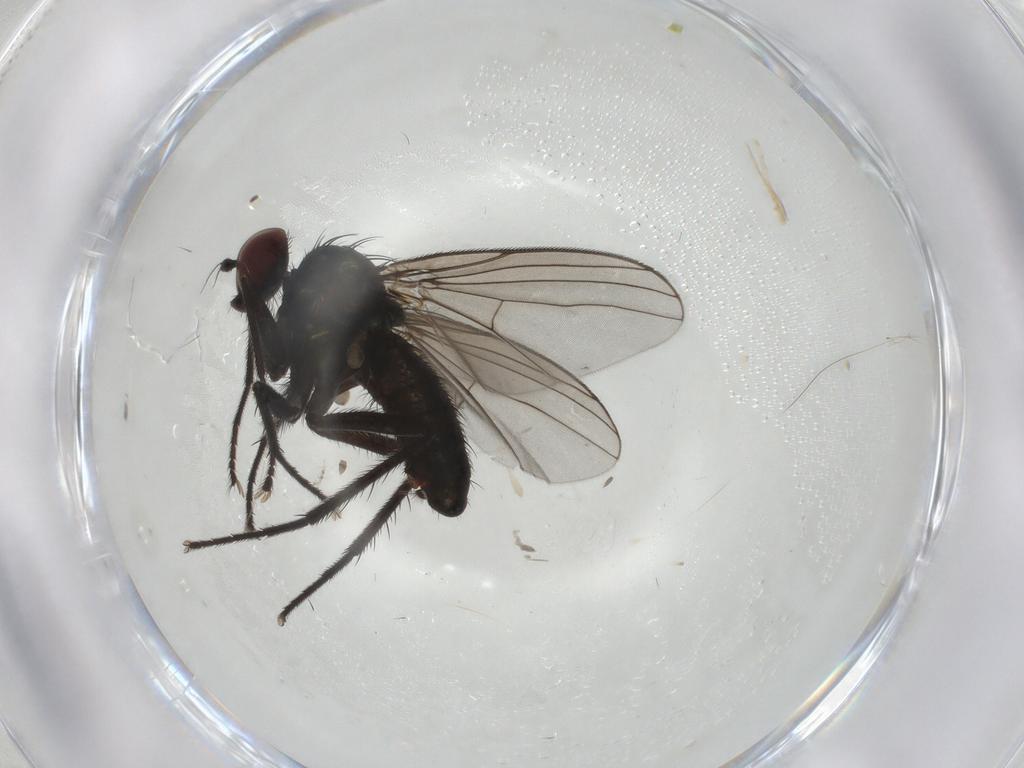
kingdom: Animalia
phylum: Arthropoda
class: Insecta
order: Diptera
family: Dolichopodidae
